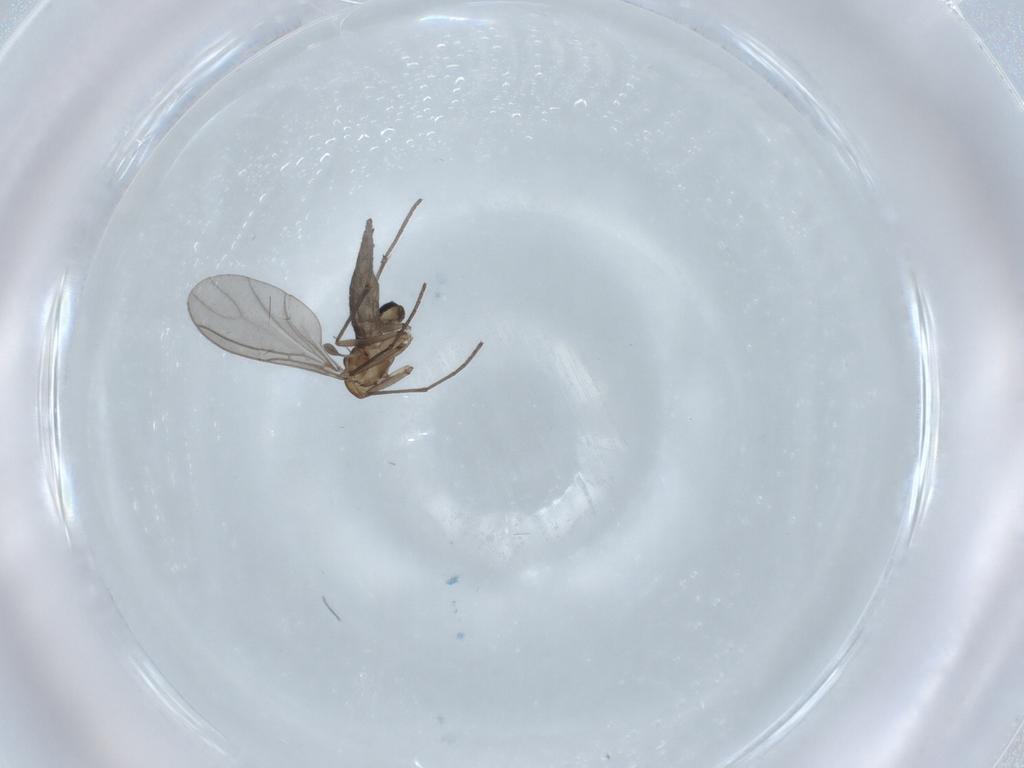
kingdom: Animalia
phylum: Arthropoda
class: Insecta
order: Diptera
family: Sciaridae
